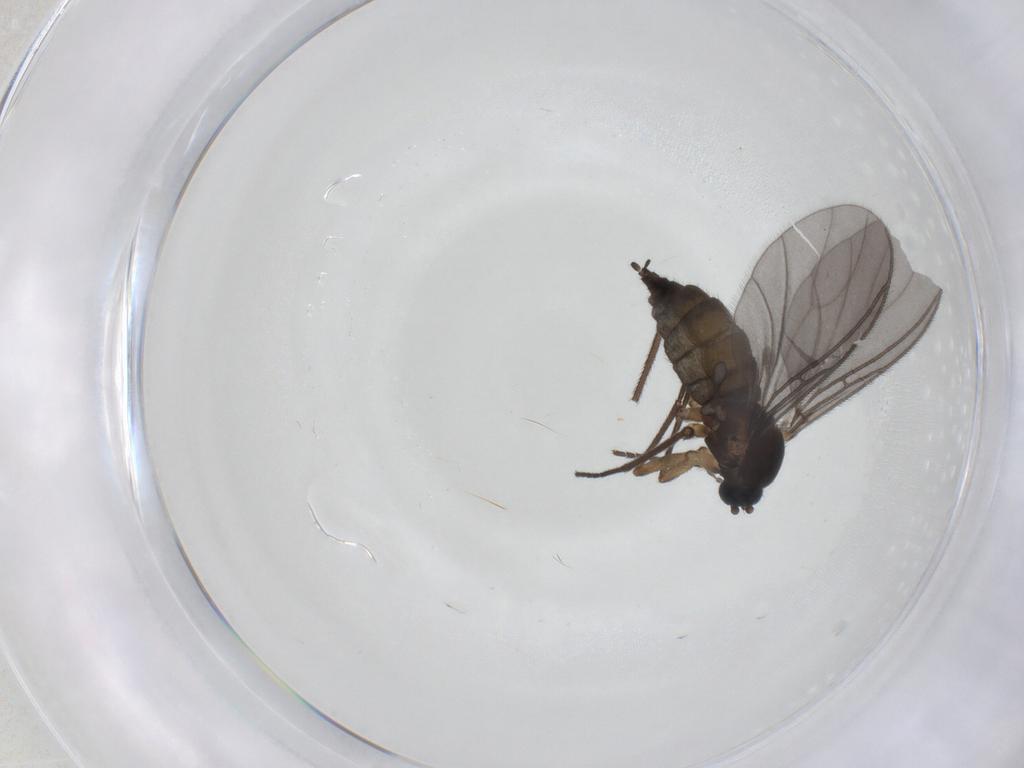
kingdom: Animalia
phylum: Arthropoda
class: Insecta
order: Diptera
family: Sciaridae
